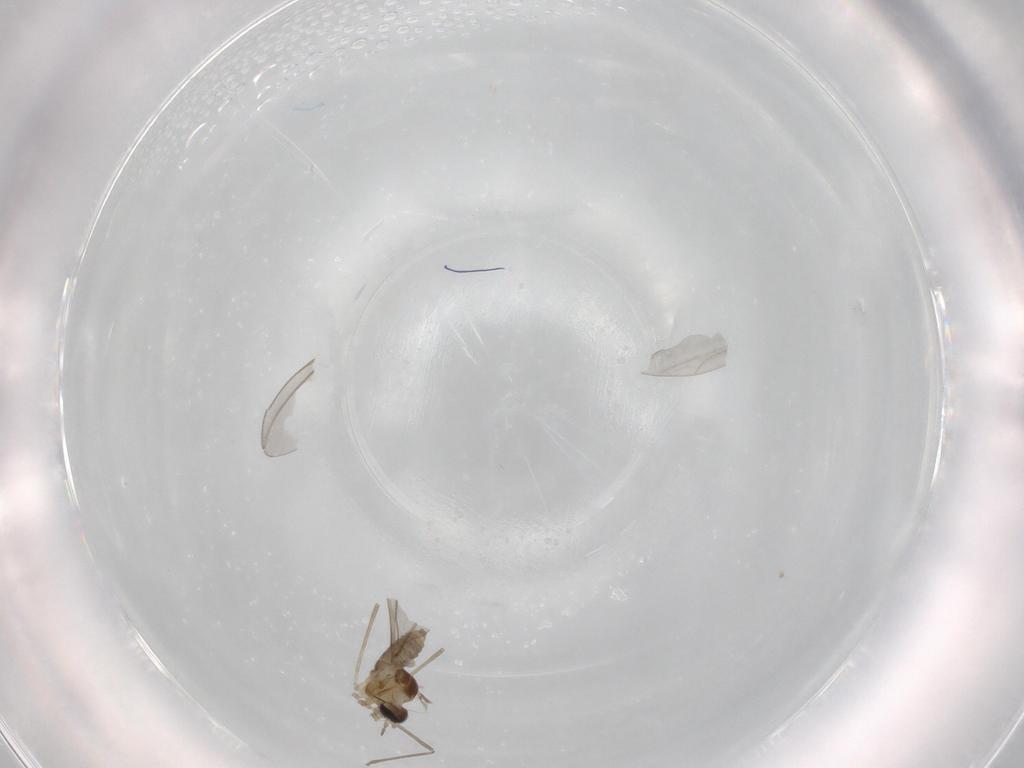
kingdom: Animalia
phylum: Arthropoda
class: Insecta
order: Diptera
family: Cecidomyiidae
